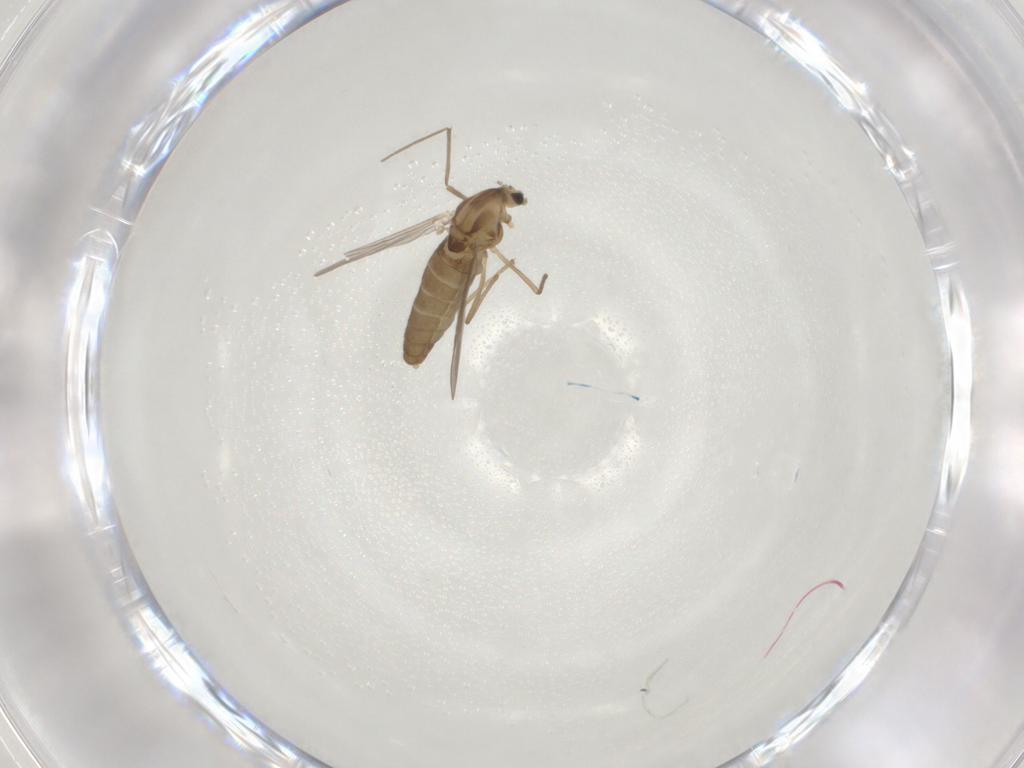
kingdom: Animalia
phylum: Arthropoda
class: Insecta
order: Diptera
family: Chironomidae
